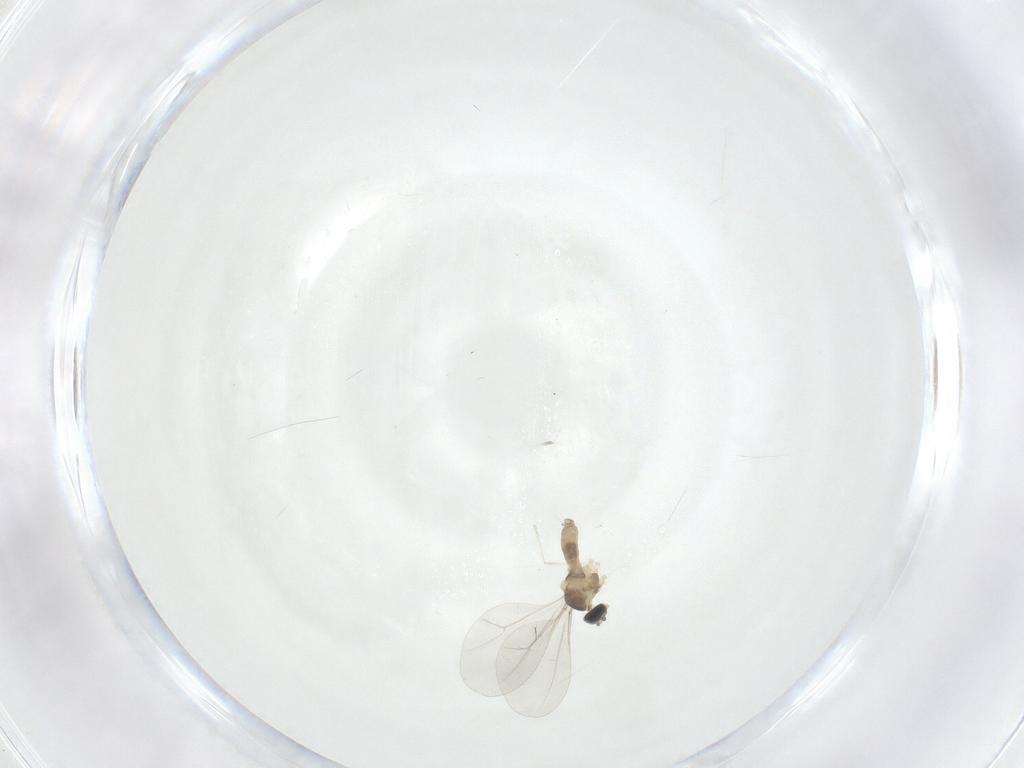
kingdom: Animalia
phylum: Arthropoda
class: Insecta
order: Diptera
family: Cecidomyiidae
